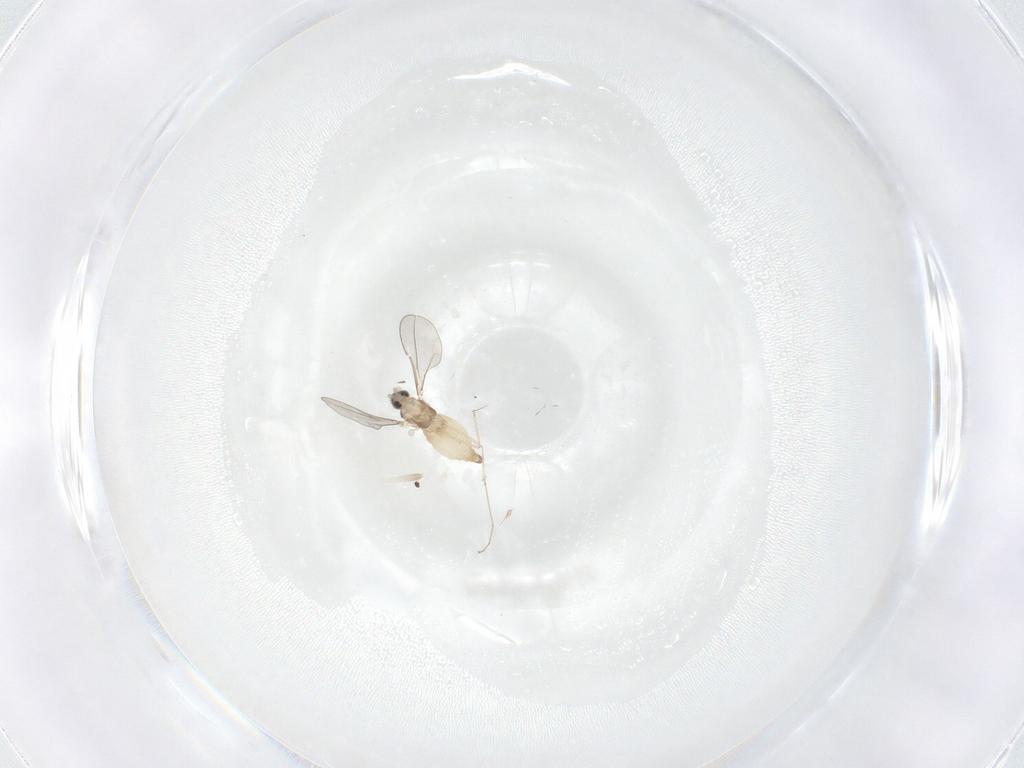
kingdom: Animalia
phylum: Arthropoda
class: Insecta
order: Diptera
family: Cecidomyiidae
